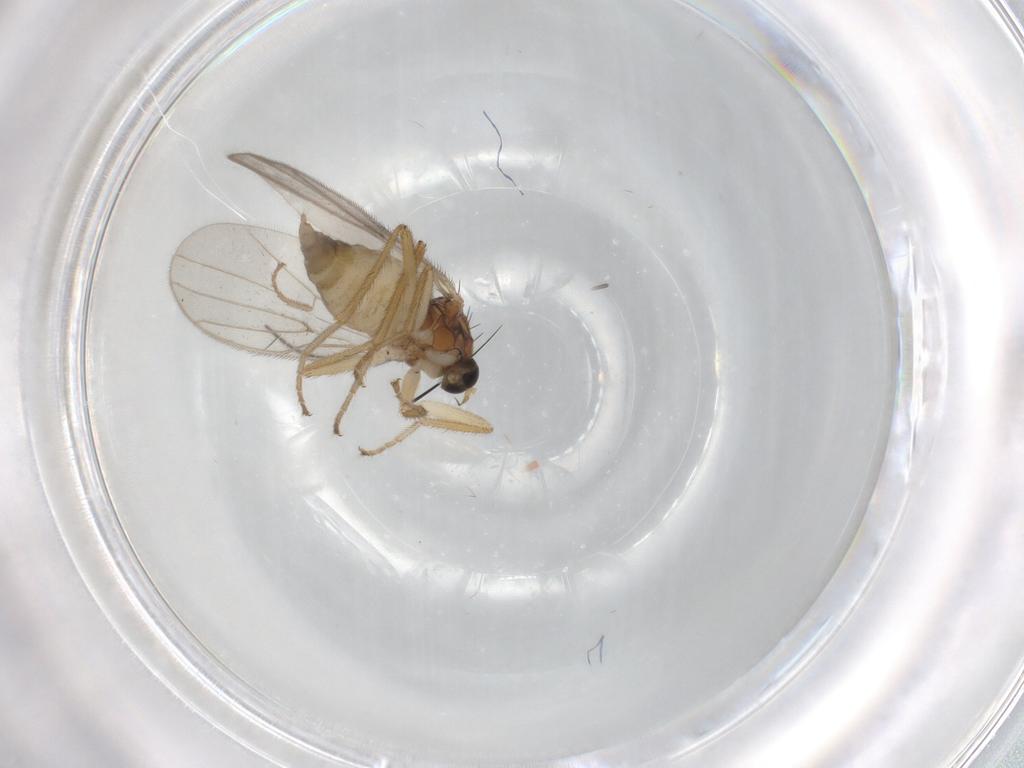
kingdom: Animalia
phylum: Arthropoda
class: Insecta
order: Diptera
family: Hybotidae
